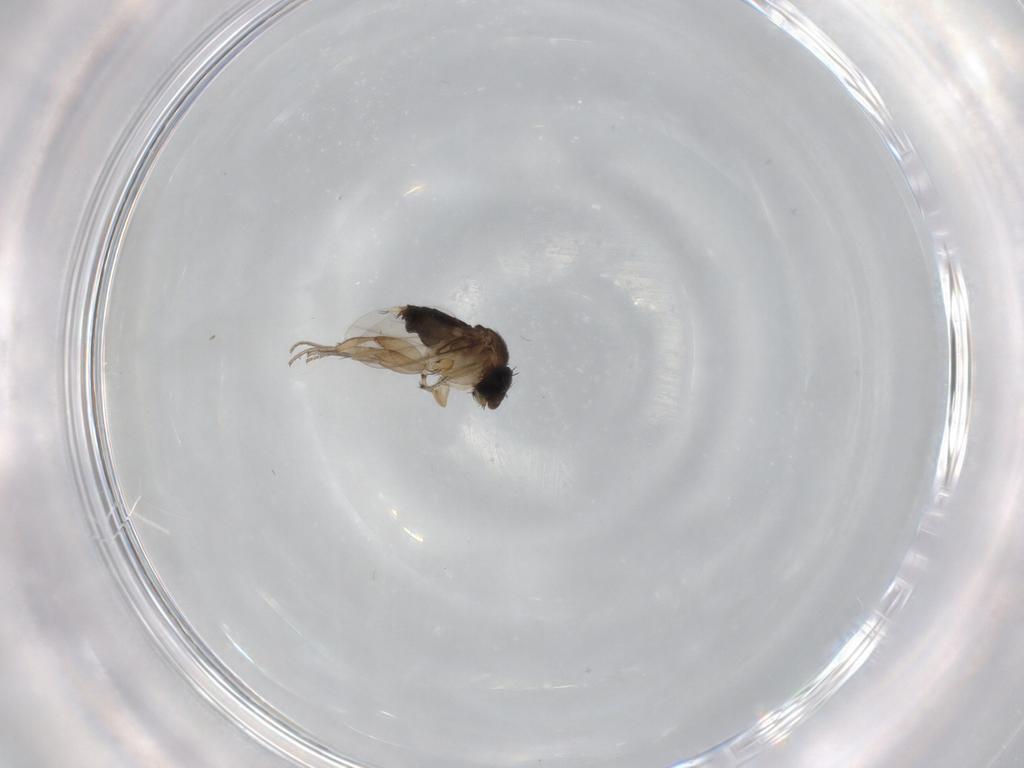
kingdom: Animalia
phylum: Arthropoda
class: Insecta
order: Diptera
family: Phoridae
